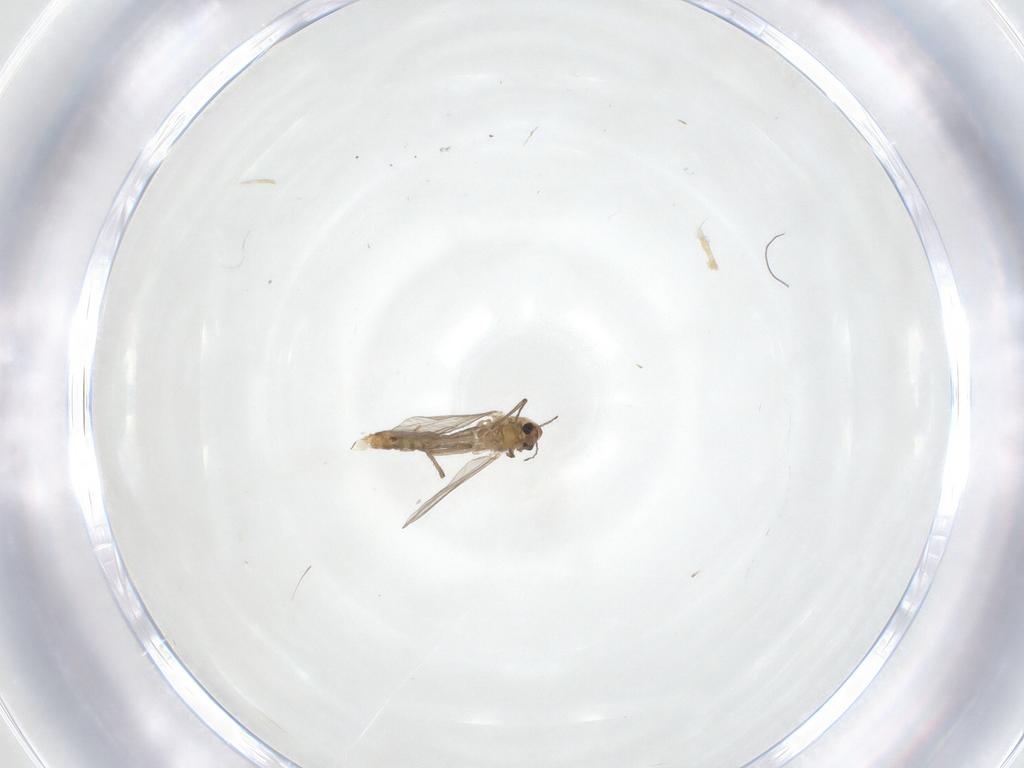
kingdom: Animalia
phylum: Arthropoda
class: Insecta
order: Diptera
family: Chironomidae
